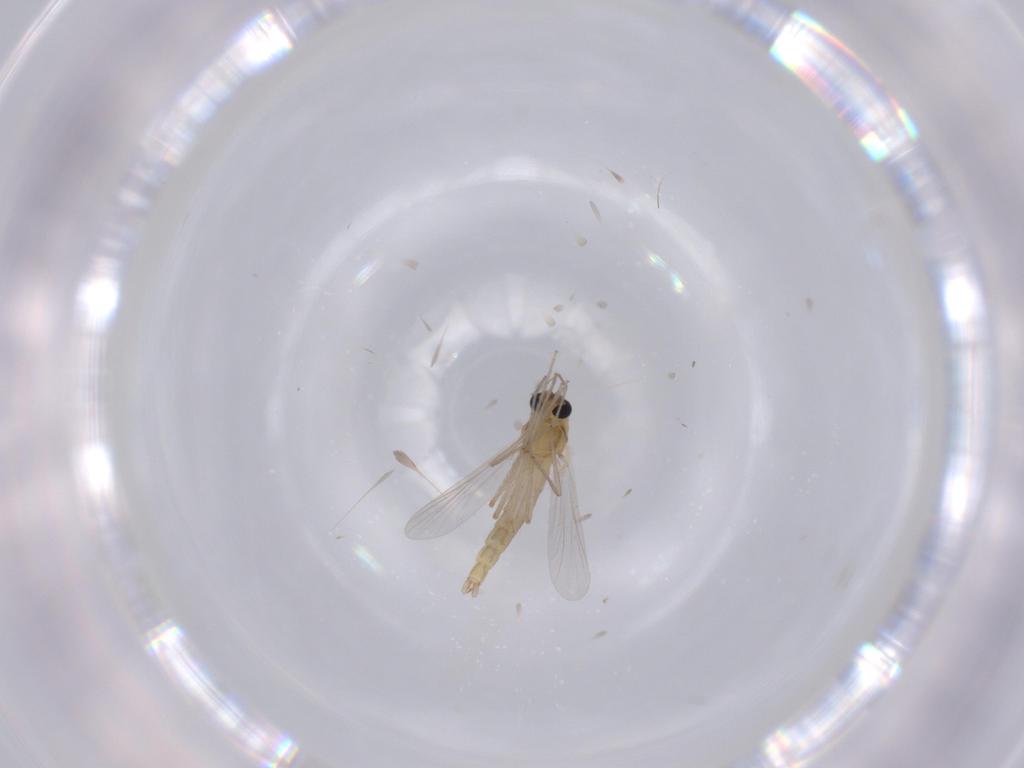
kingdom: Animalia
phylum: Arthropoda
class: Insecta
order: Diptera
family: Chironomidae
